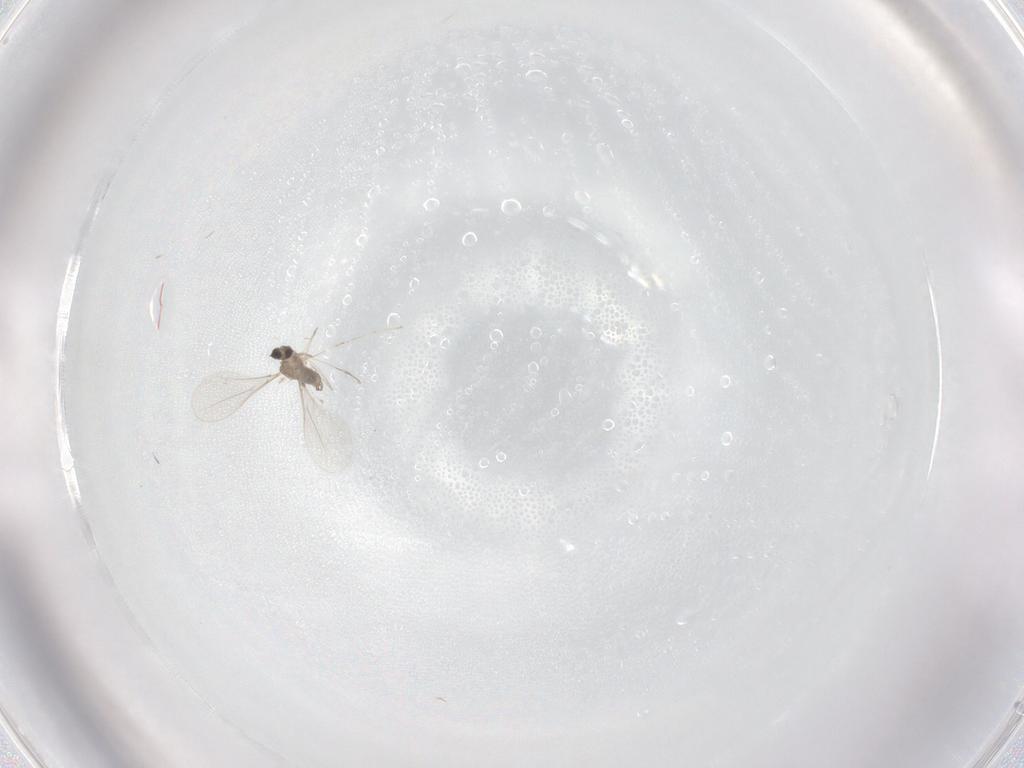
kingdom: Animalia
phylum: Arthropoda
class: Insecta
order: Diptera
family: Cecidomyiidae
